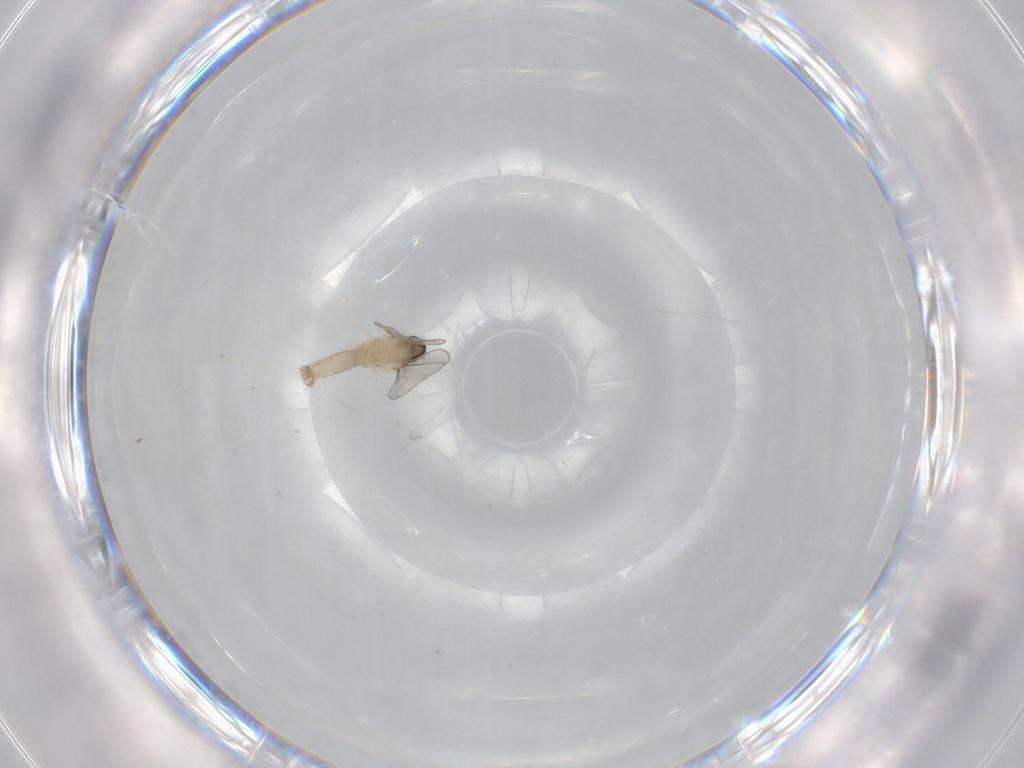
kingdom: Animalia
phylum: Arthropoda
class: Insecta
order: Diptera
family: Cecidomyiidae
